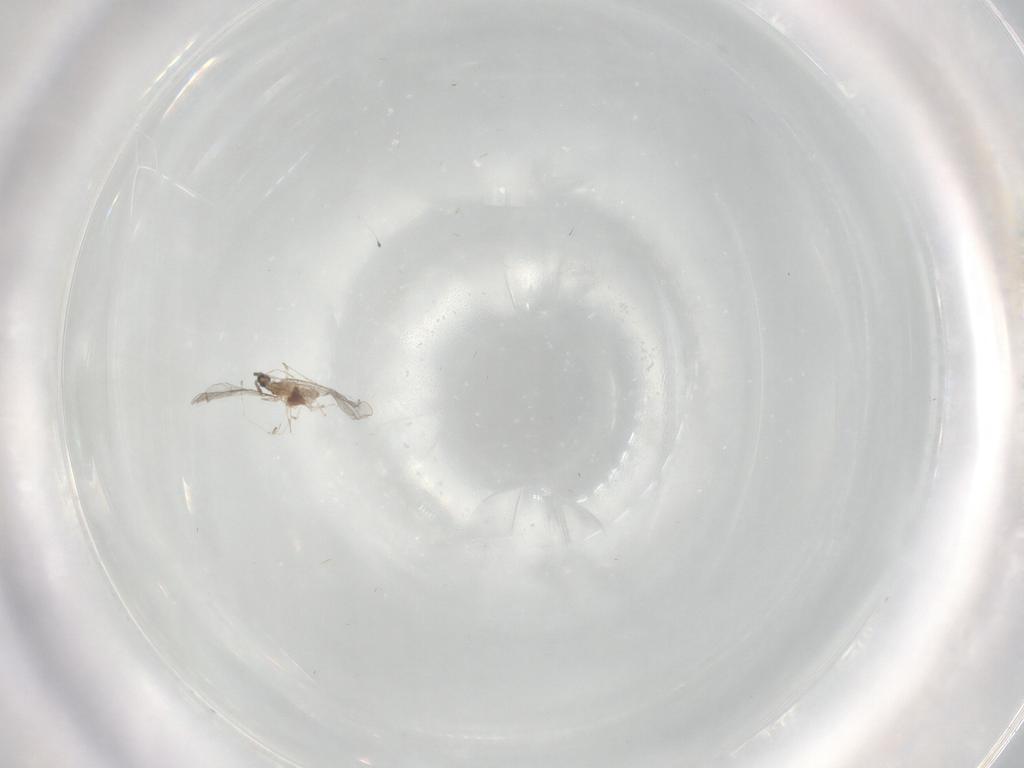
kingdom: Animalia
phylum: Arthropoda
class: Insecta
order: Diptera
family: Cecidomyiidae
